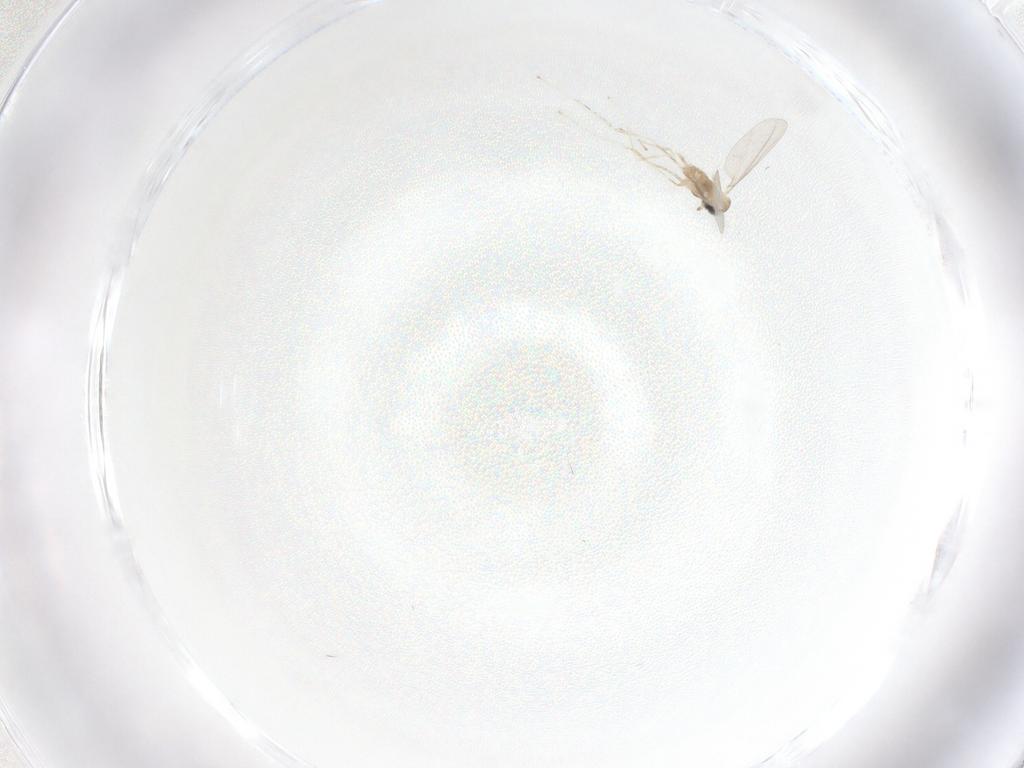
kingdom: Animalia
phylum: Arthropoda
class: Insecta
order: Diptera
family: Cecidomyiidae
